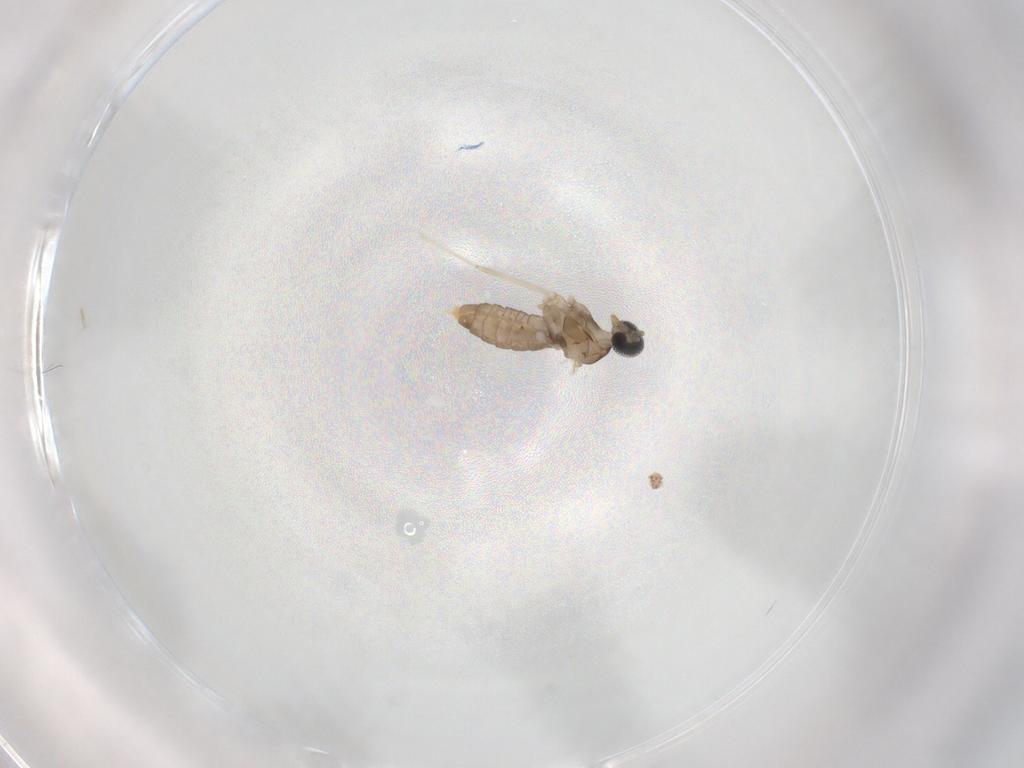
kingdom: Animalia
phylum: Arthropoda
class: Insecta
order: Diptera
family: Cecidomyiidae
